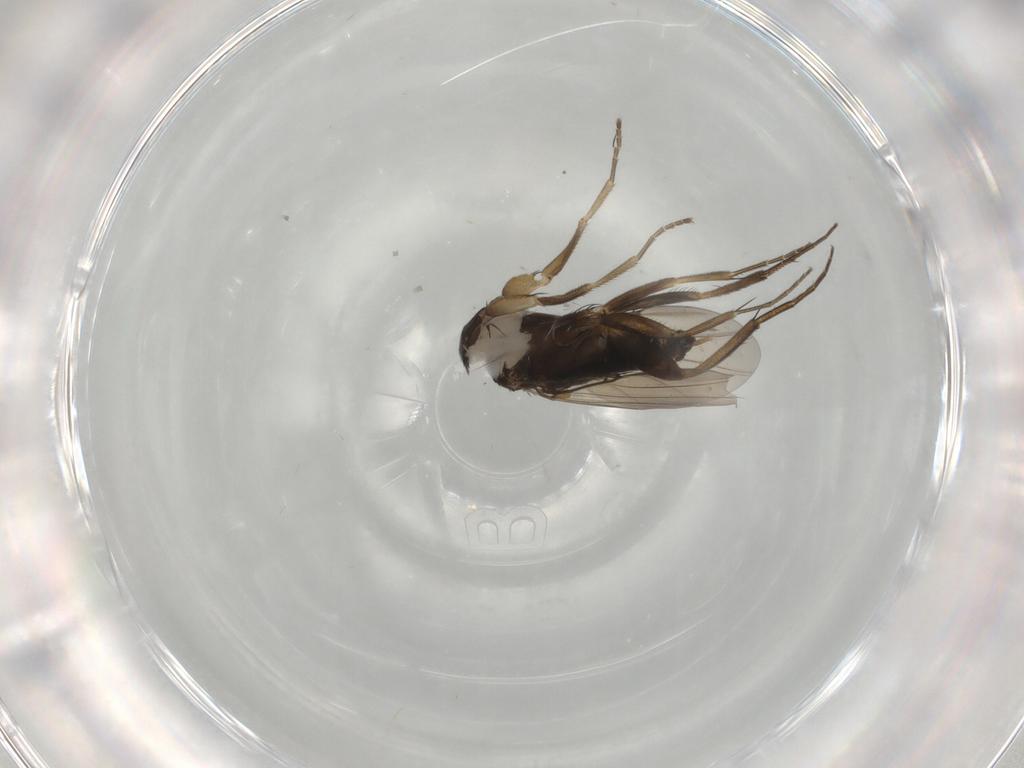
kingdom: Animalia
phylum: Arthropoda
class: Insecta
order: Diptera
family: Phoridae
